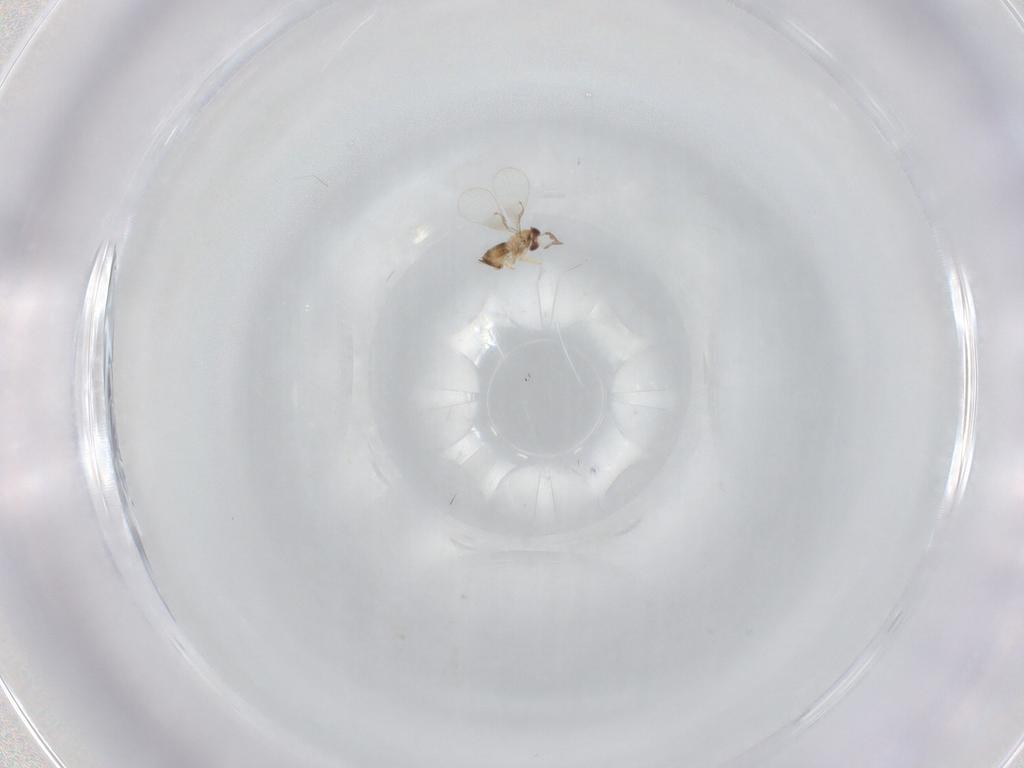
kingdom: Animalia
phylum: Arthropoda
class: Insecta
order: Hymenoptera
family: Trichogrammatidae
